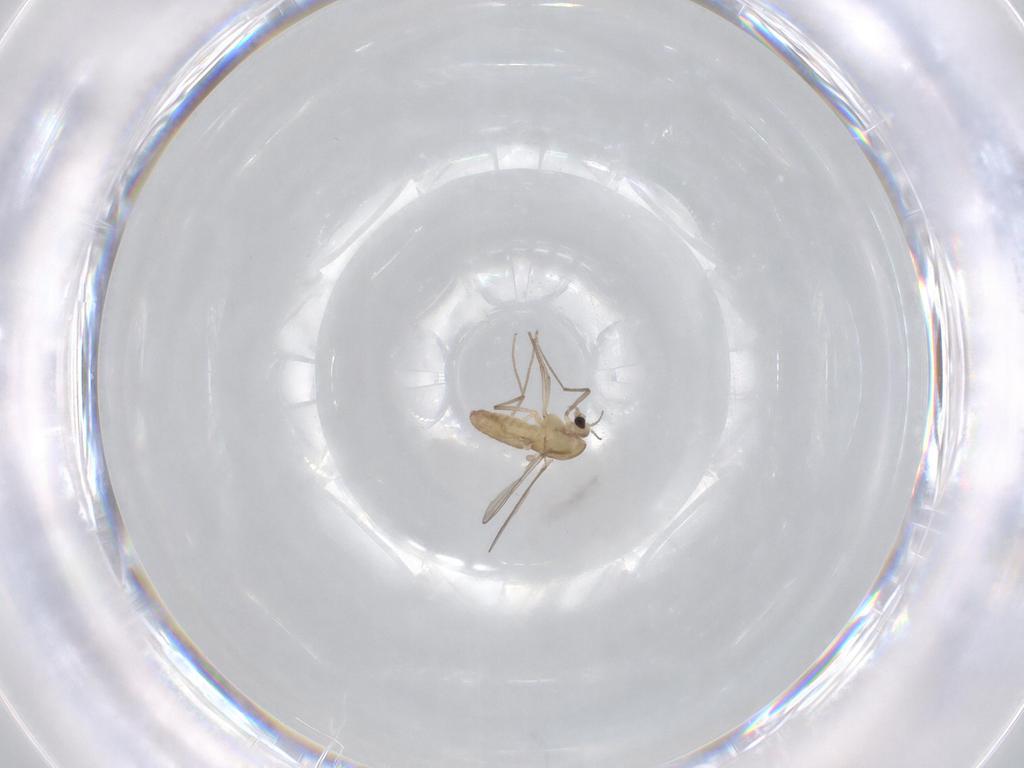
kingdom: Animalia
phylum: Arthropoda
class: Insecta
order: Diptera
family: Chironomidae
